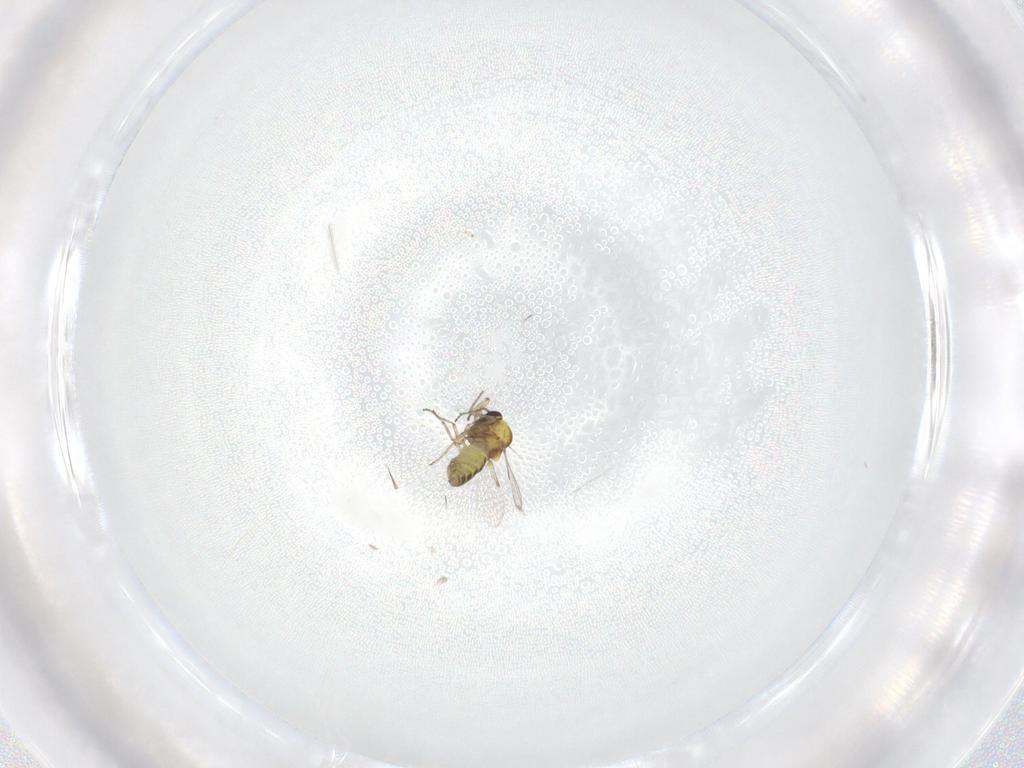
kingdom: Animalia
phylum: Arthropoda
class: Insecta
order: Diptera
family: Ceratopogonidae
